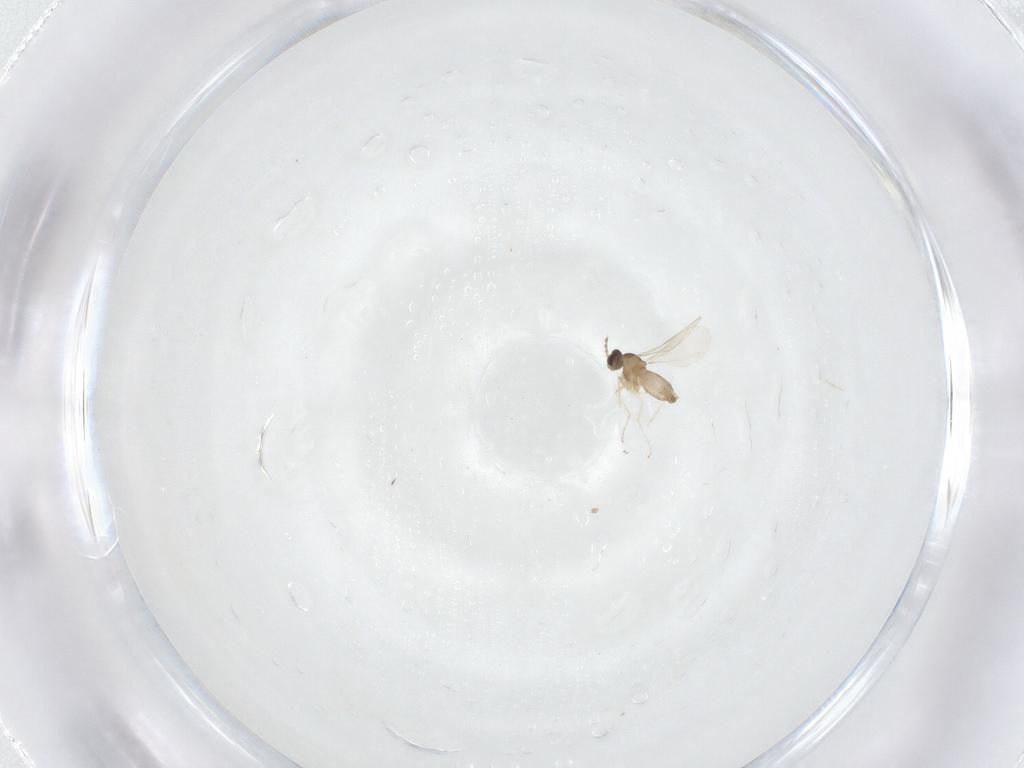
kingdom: Animalia
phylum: Arthropoda
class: Insecta
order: Diptera
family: Cecidomyiidae
